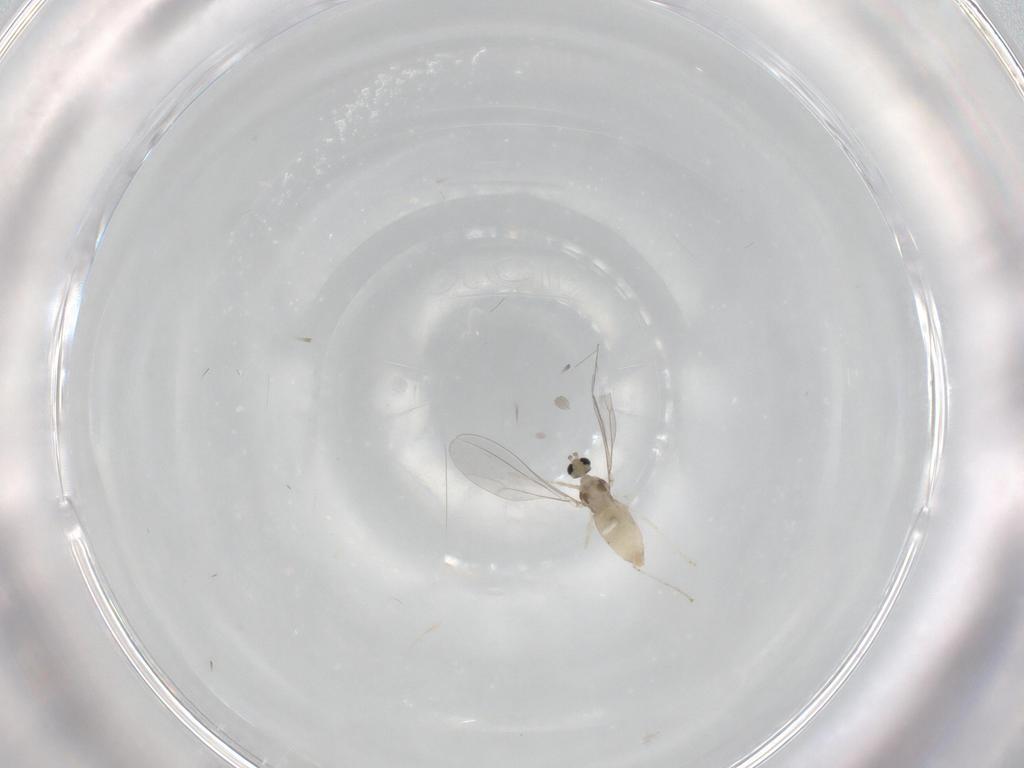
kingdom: Animalia
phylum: Arthropoda
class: Insecta
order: Diptera
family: Cecidomyiidae
